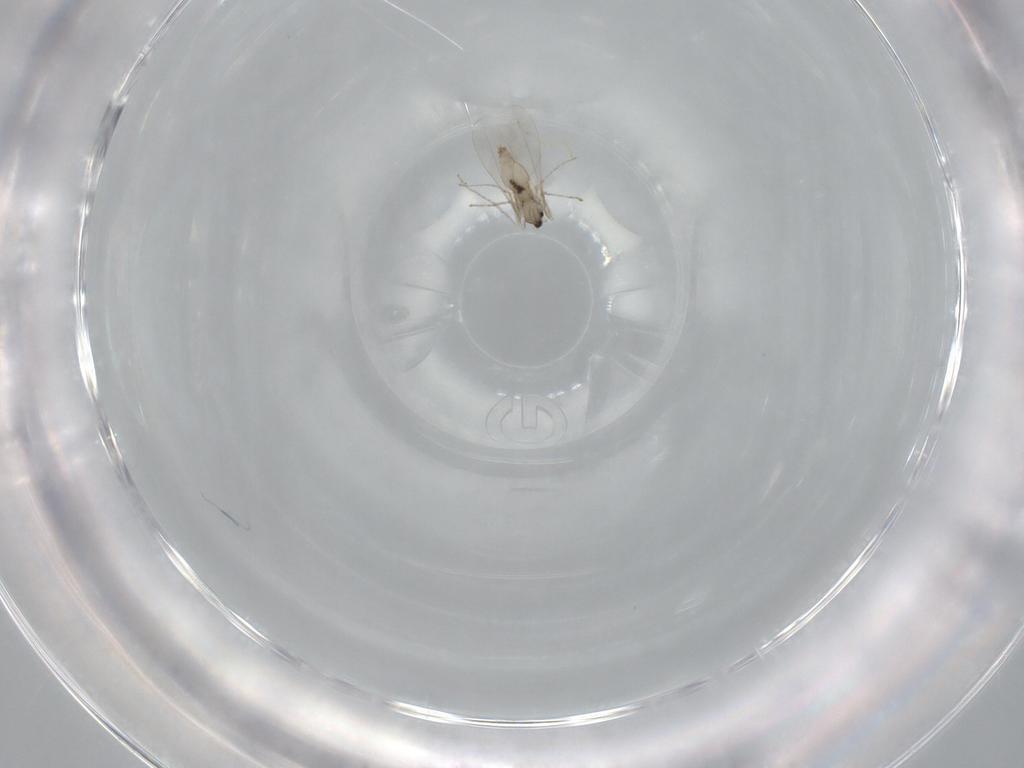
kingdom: Animalia
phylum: Arthropoda
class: Insecta
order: Diptera
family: Cecidomyiidae
